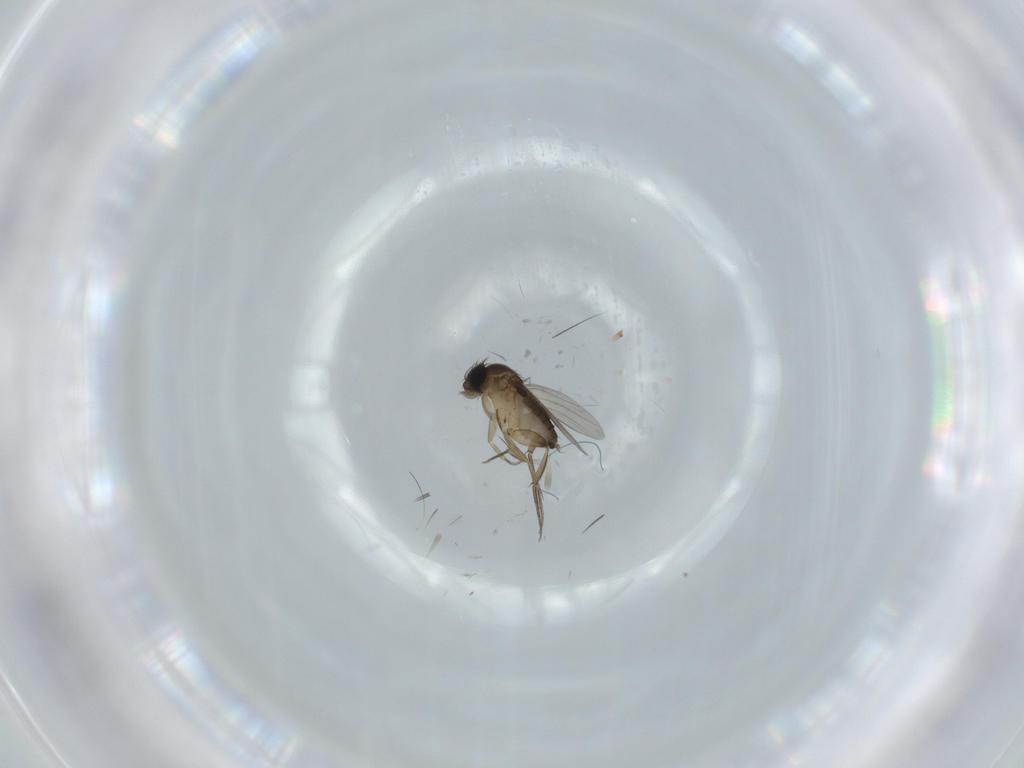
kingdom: Animalia
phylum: Arthropoda
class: Insecta
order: Diptera
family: Phoridae
